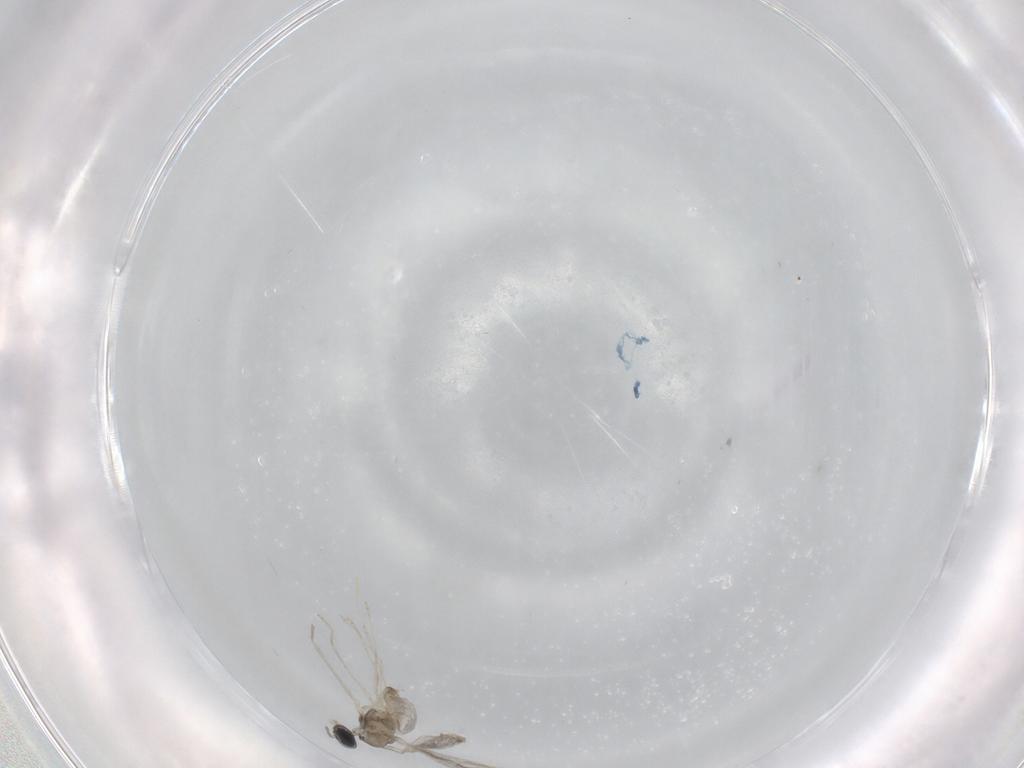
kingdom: Animalia
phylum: Arthropoda
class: Insecta
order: Diptera
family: Cecidomyiidae
